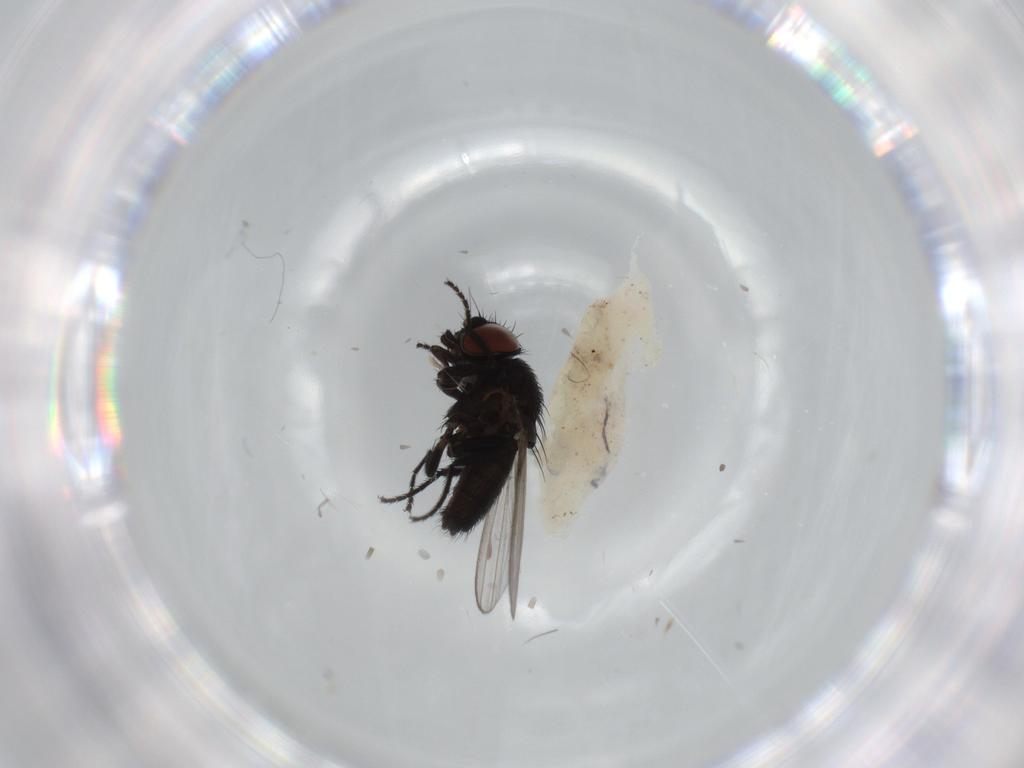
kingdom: Animalia
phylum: Arthropoda
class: Insecta
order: Diptera
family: Milichiidae
